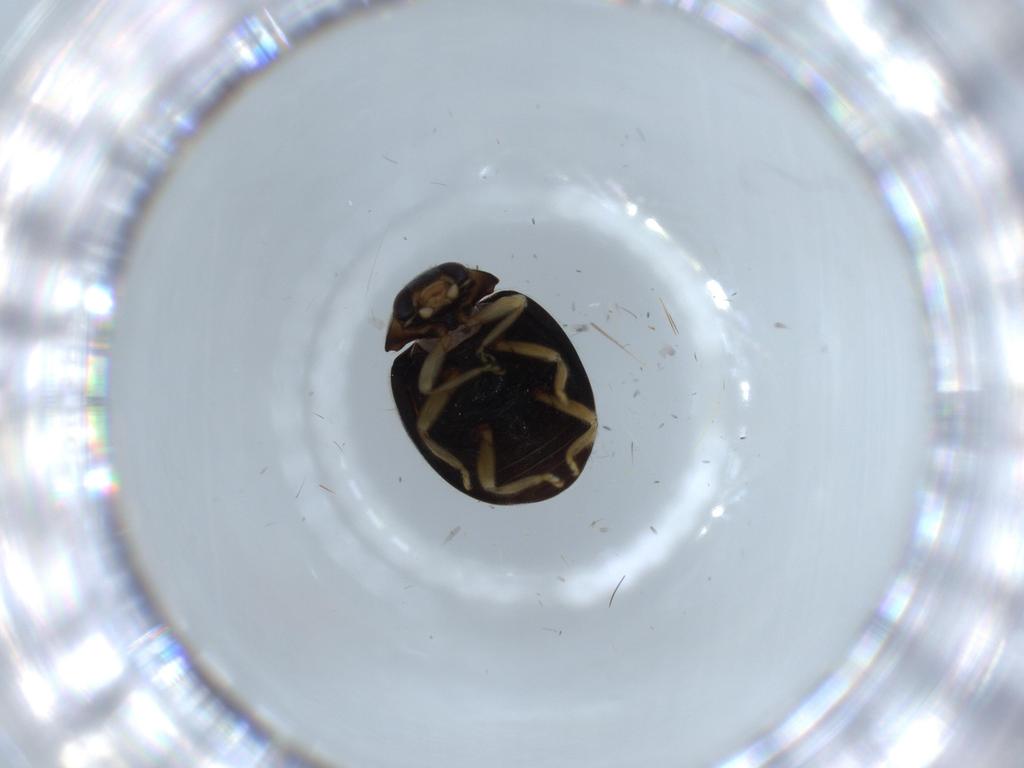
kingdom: Animalia
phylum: Arthropoda
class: Insecta
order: Coleoptera
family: Coccinellidae
